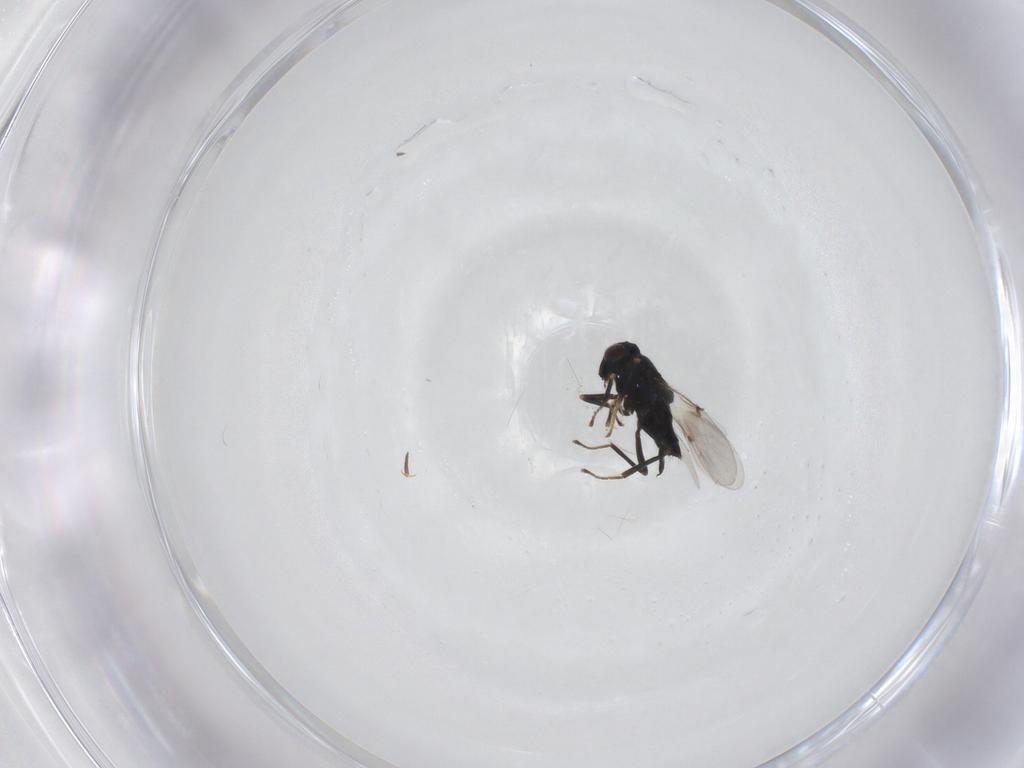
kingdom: Animalia
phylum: Arthropoda
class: Insecta
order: Hymenoptera
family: Encyrtidae
